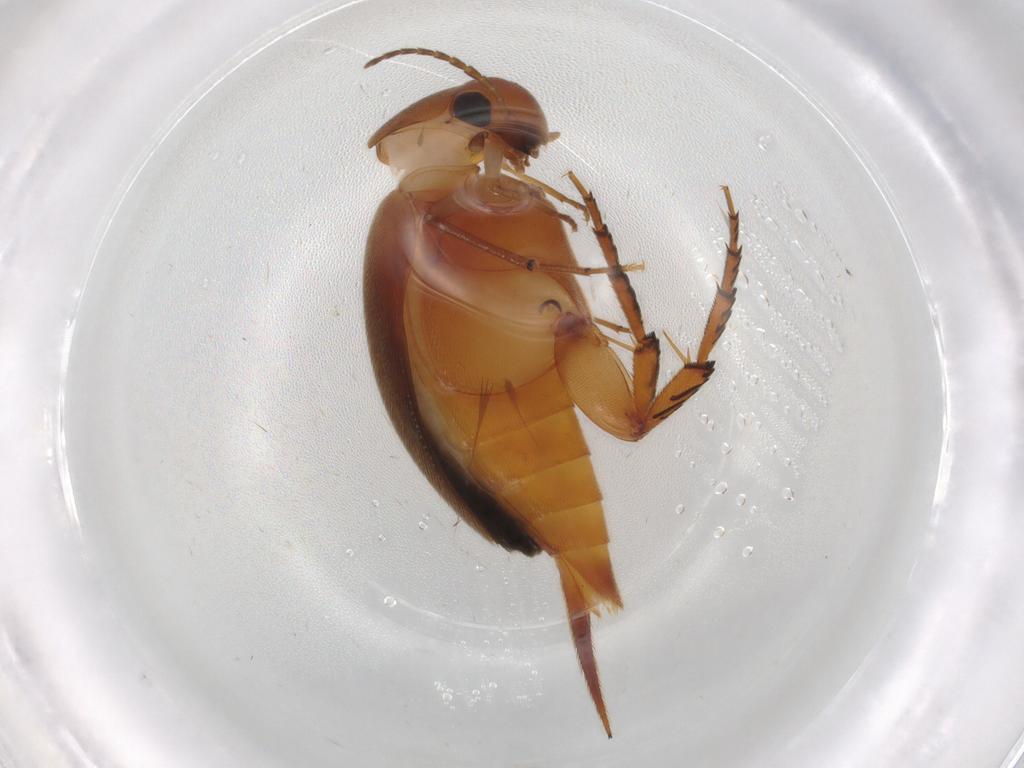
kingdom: Animalia
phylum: Arthropoda
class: Insecta
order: Coleoptera
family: Mordellidae
